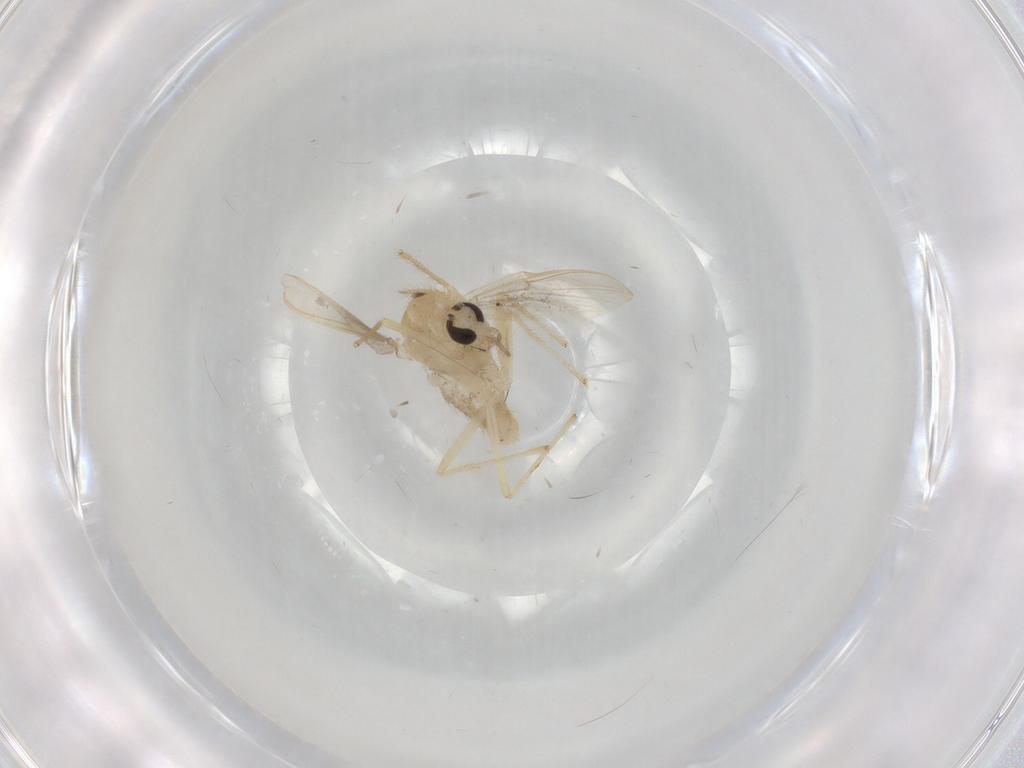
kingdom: Animalia
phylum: Arthropoda
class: Insecta
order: Diptera
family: Chironomidae
